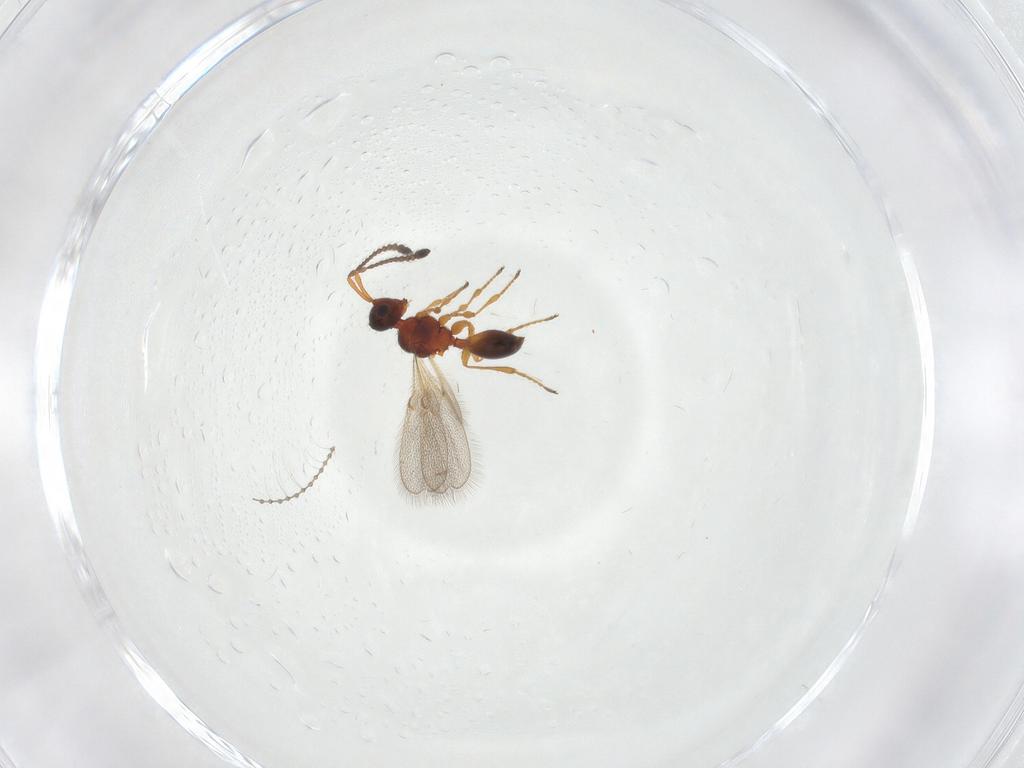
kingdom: Animalia
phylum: Arthropoda
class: Insecta
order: Hymenoptera
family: Diapriidae
